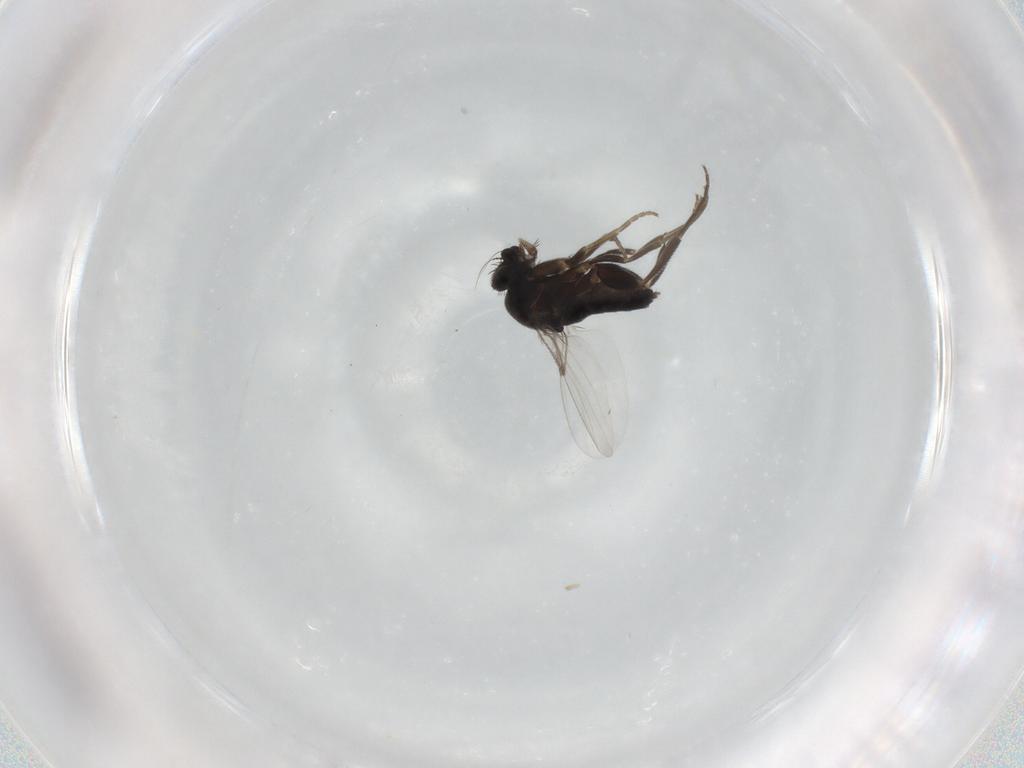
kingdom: Animalia
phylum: Arthropoda
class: Insecta
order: Diptera
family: Phoridae
